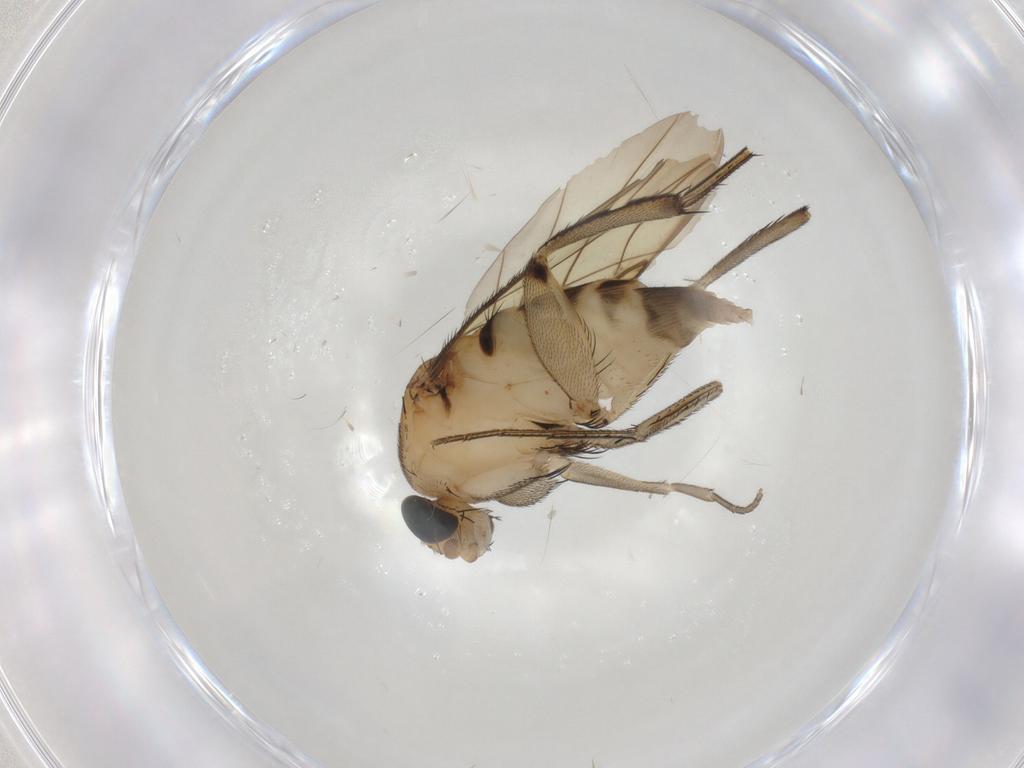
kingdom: Animalia
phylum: Arthropoda
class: Insecta
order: Diptera
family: Phoridae
